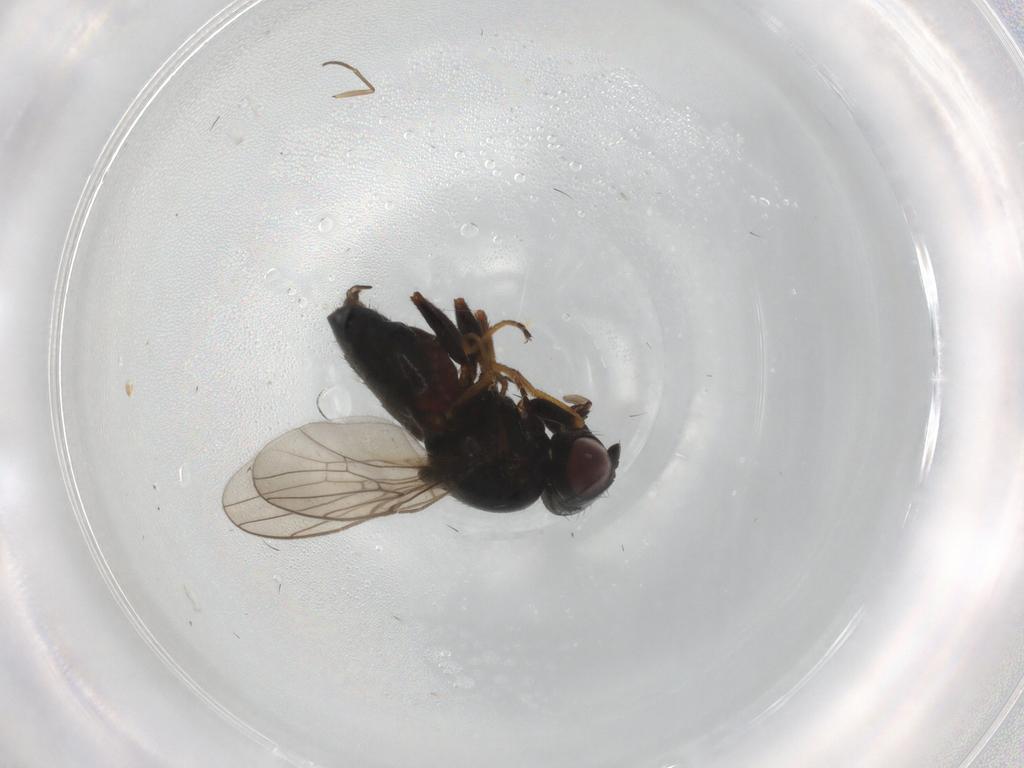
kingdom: Animalia
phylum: Arthropoda
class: Insecta
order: Diptera
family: Chloropidae
